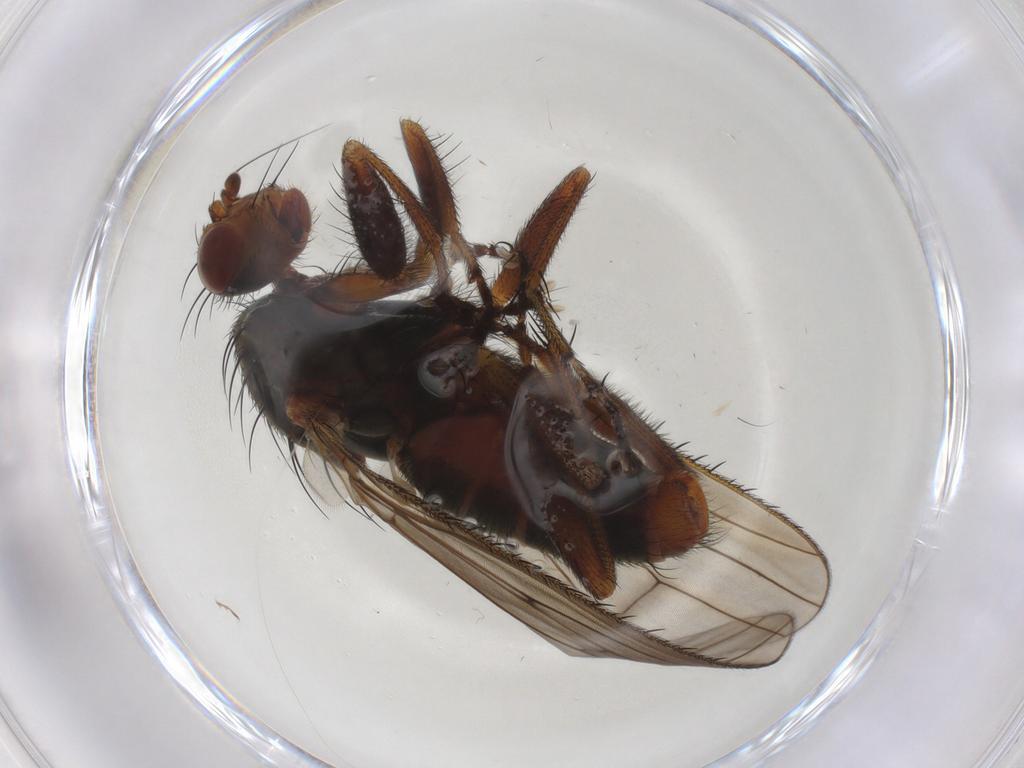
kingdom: Animalia
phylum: Arthropoda
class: Insecta
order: Diptera
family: Heleomyzidae
